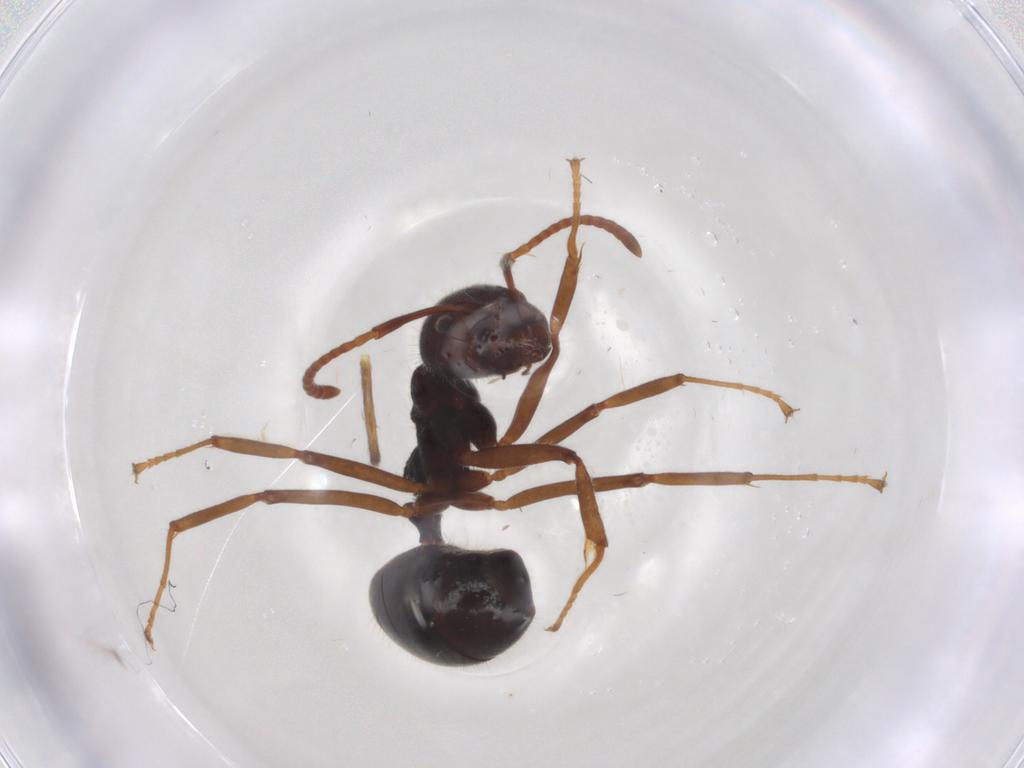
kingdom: Animalia
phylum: Arthropoda
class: Insecta
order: Hymenoptera
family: Formicidae
